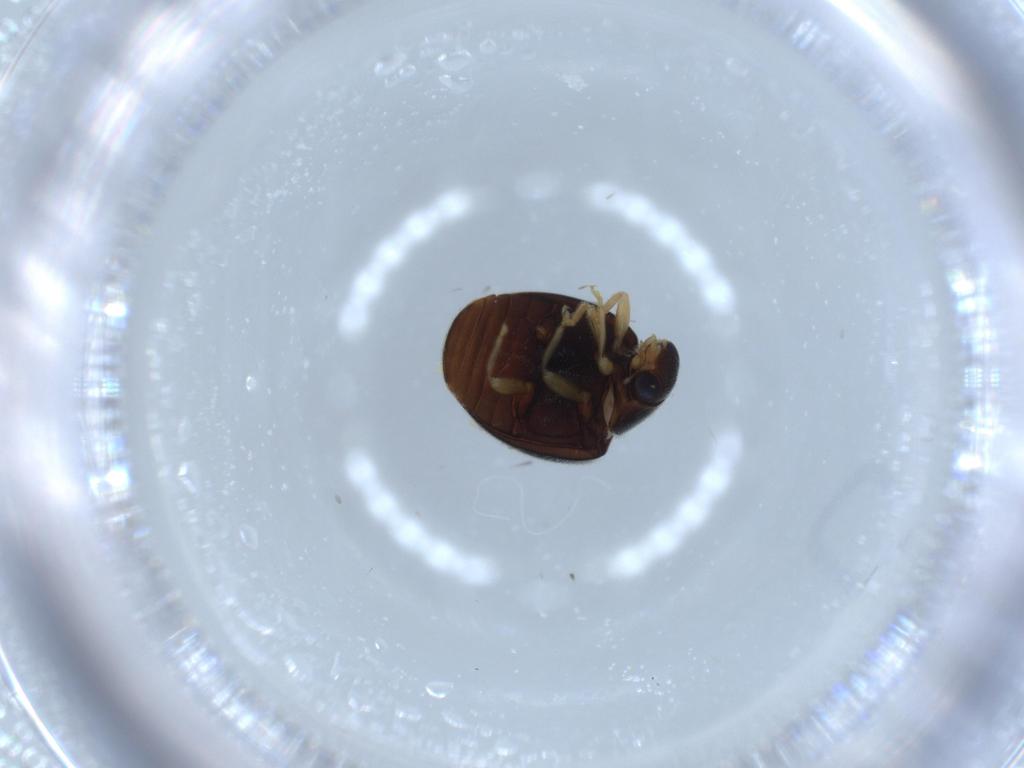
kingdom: Animalia
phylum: Arthropoda
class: Insecta
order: Coleoptera
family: Coccinellidae
